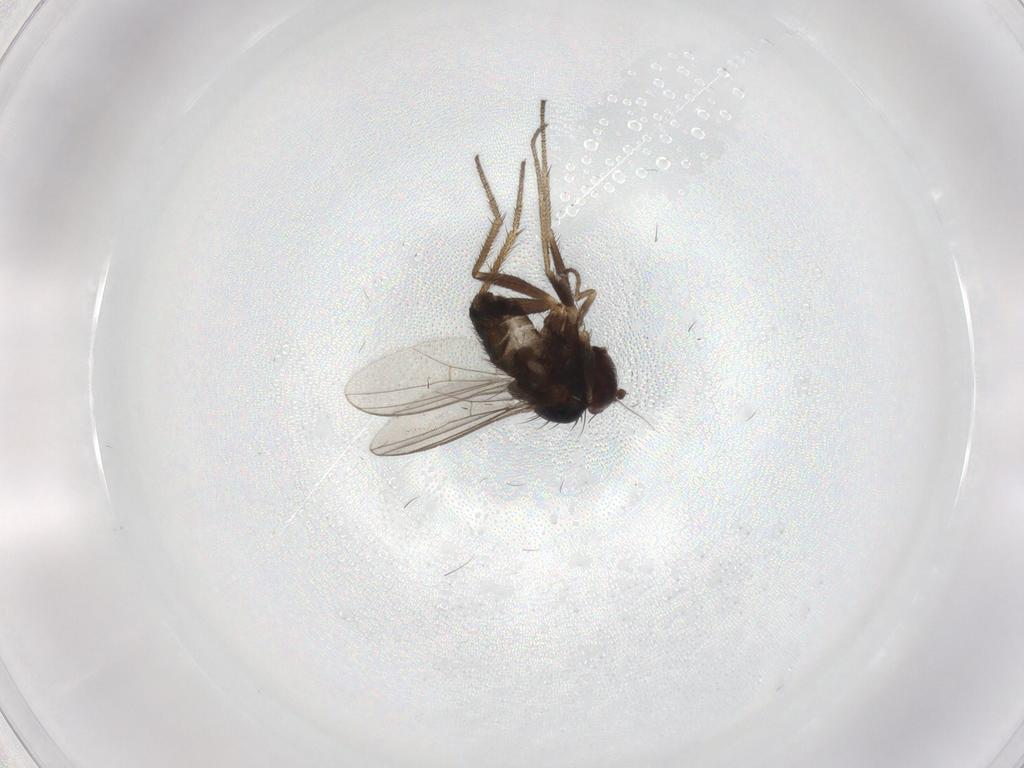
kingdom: Animalia
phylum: Arthropoda
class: Insecta
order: Diptera
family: Dolichopodidae
